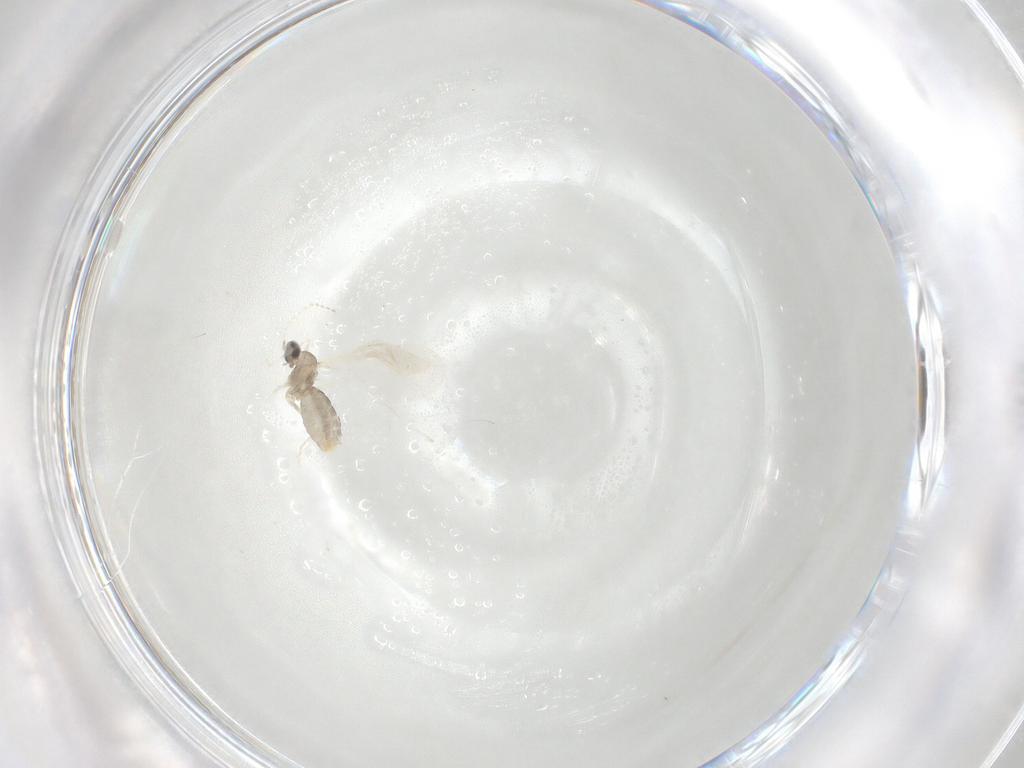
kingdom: Animalia
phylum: Arthropoda
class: Insecta
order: Diptera
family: Cecidomyiidae
